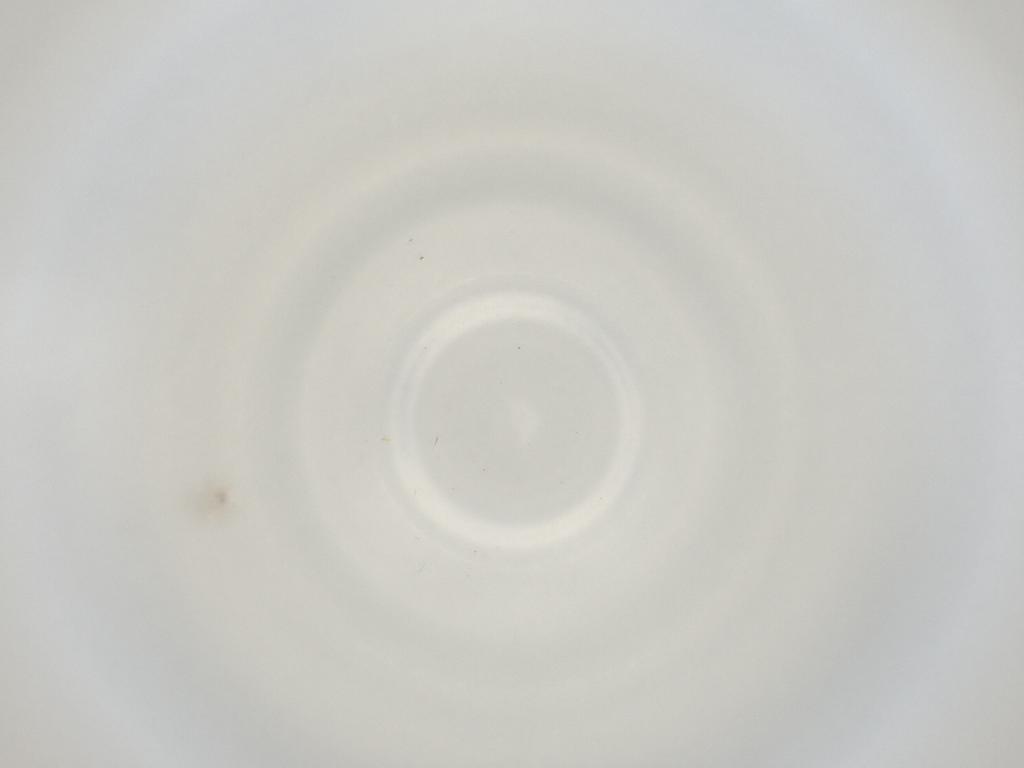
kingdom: Animalia
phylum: Arthropoda
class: Insecta
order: Diptera
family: Cecidomyiidae
